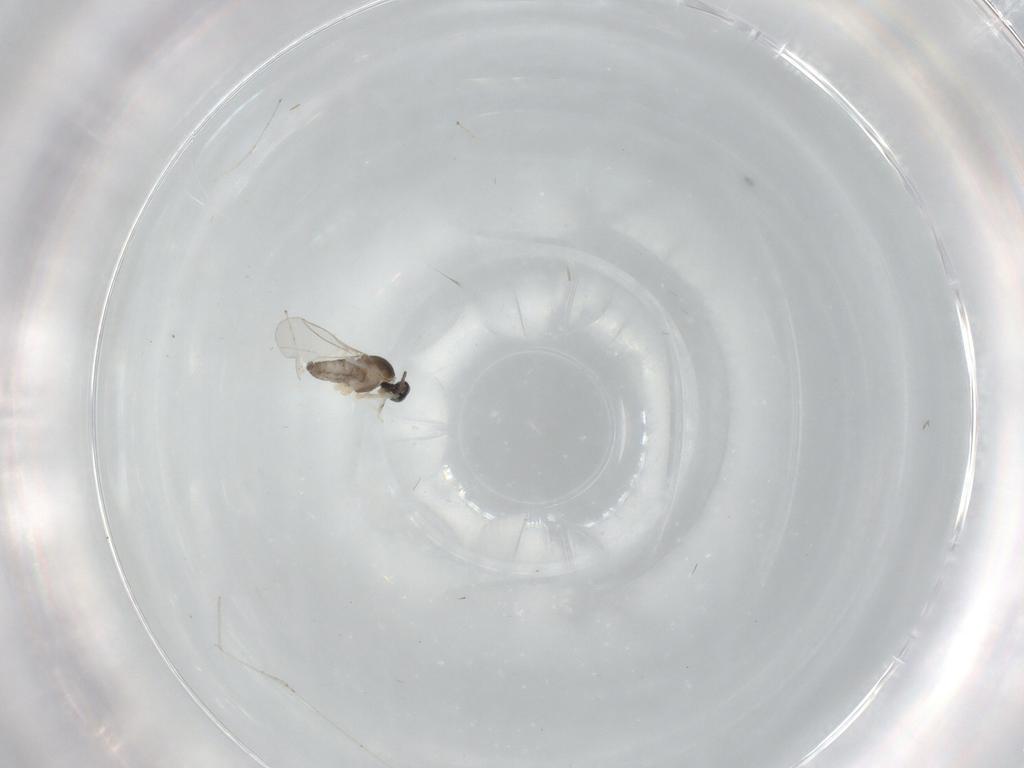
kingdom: Animalia
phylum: Arthropoda
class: Insecta
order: Diptera
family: Cecidomyiidae
